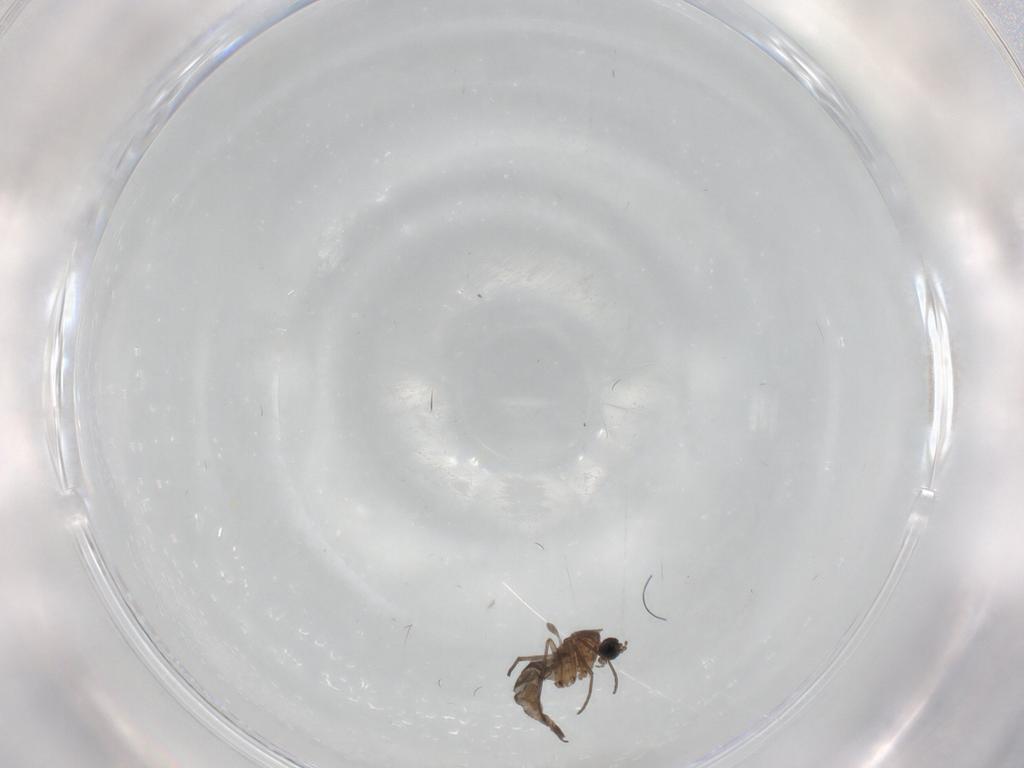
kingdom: Animalia
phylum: Arthropoda
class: Insecta
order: Diptera
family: Sciaridae
